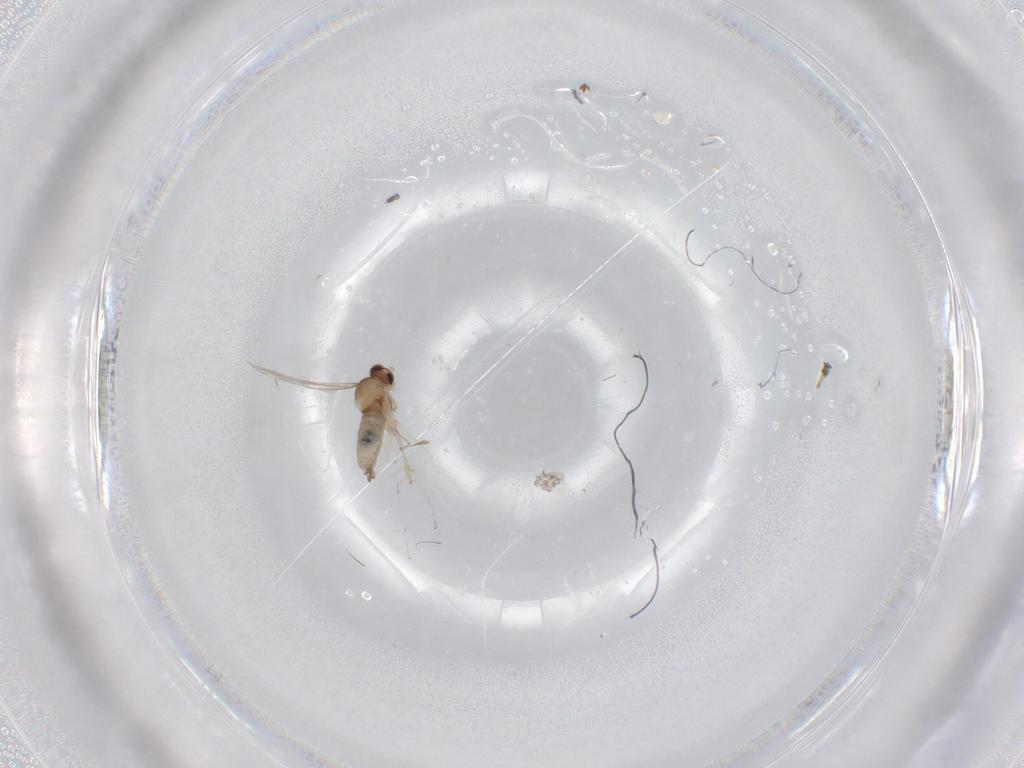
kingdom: Animalia
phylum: Arthropoda
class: Insecta
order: Diptera
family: Cecidomyiidae
